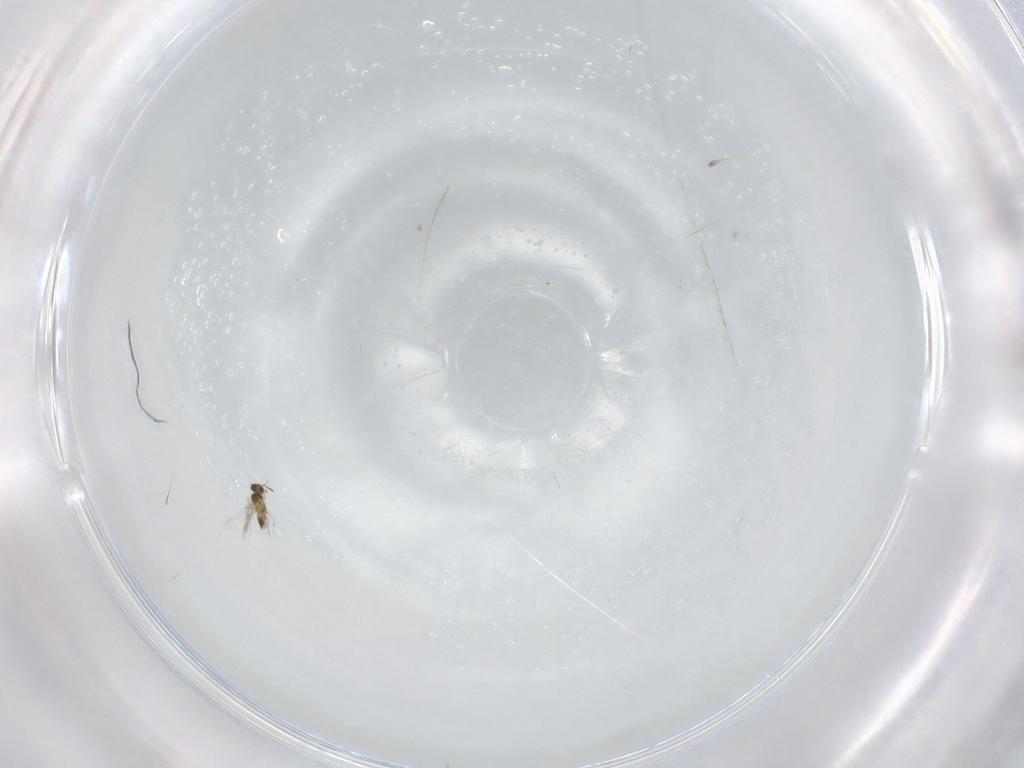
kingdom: Animalia
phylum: Arthropoda
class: Insecta
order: Hymenoptera
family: Mymaridae
